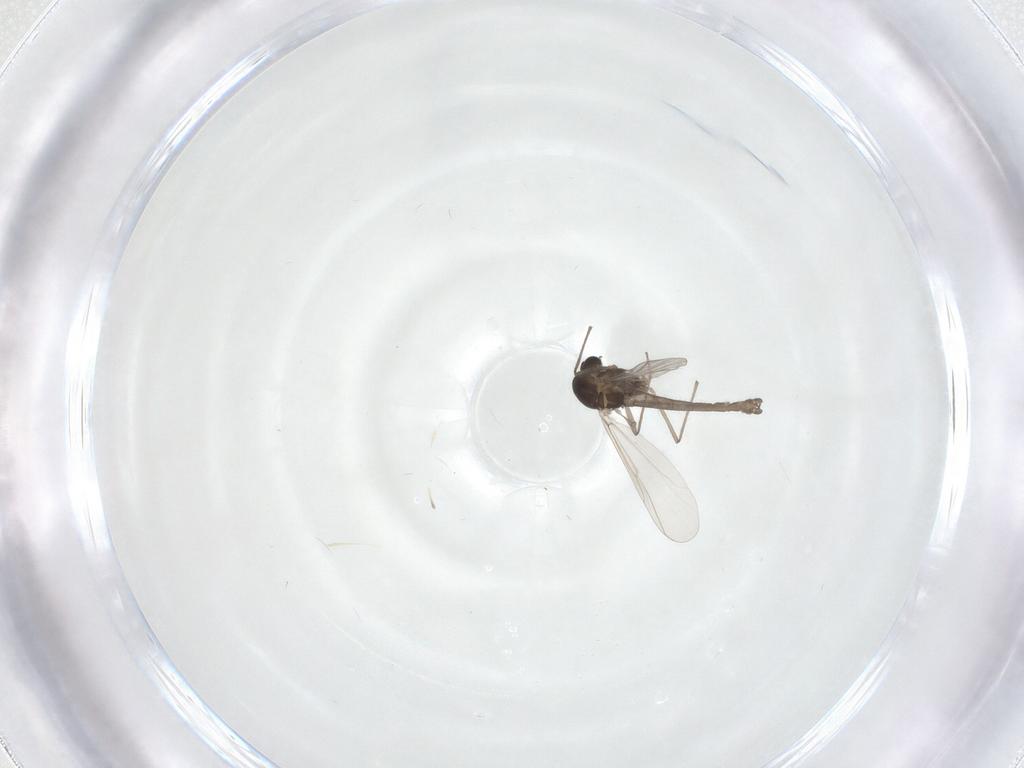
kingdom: Animalia
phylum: Arthropoda
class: Insecta
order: Diptera
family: Chironomidae
